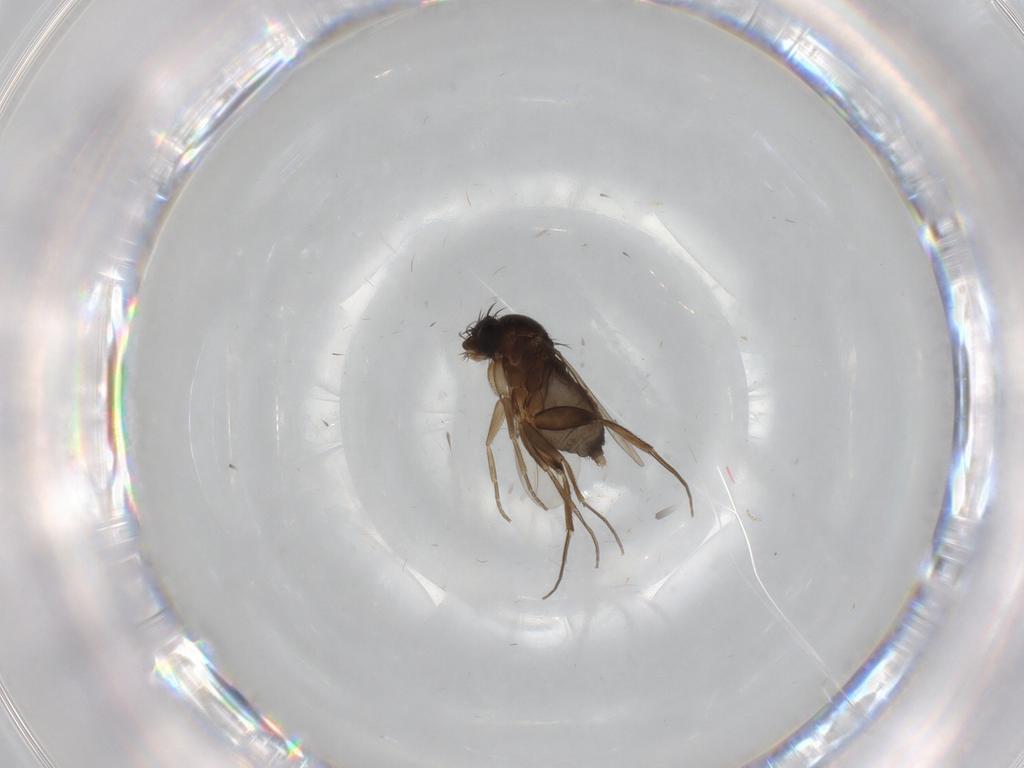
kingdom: Animalia
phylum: Arthropoda
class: Insecta
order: Diptera
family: Phoridae
